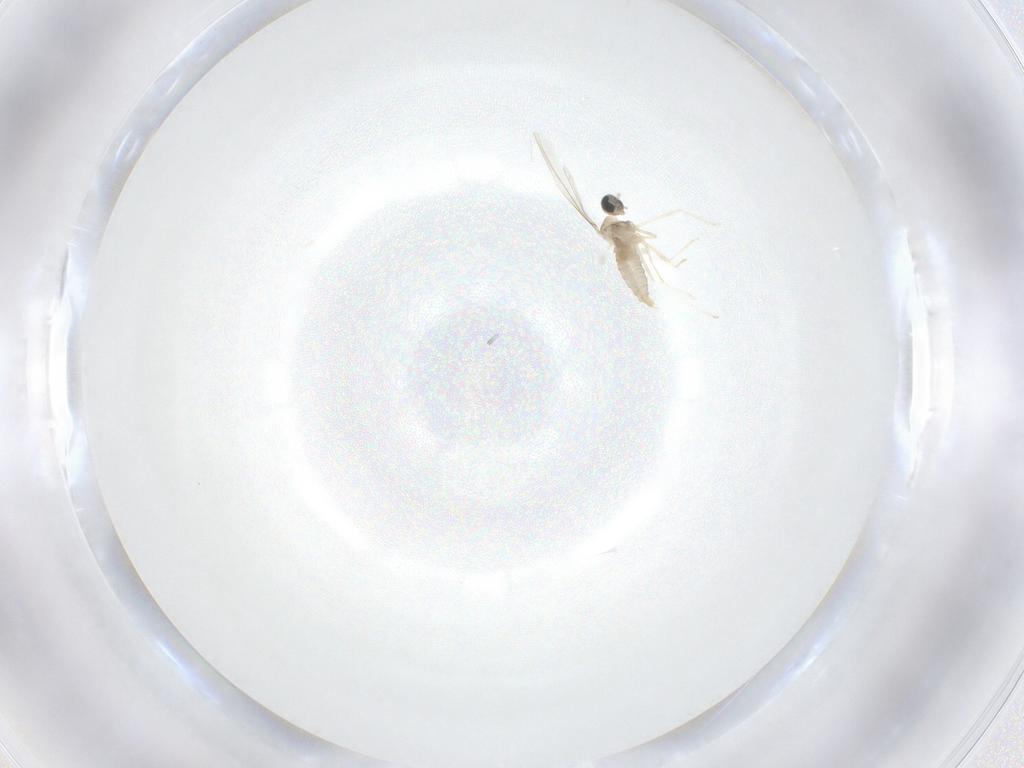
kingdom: Animalia
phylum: Arthropoda
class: Insecta
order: Diptera
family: Cecidomyiidae
